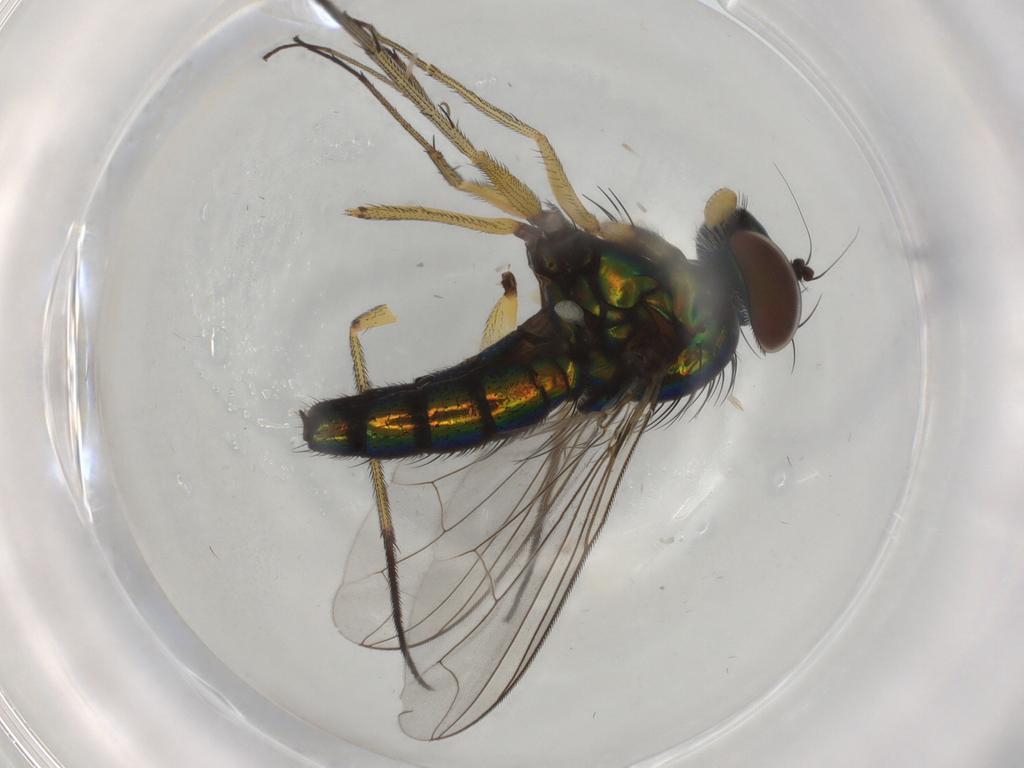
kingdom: Animalia
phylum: Arthropoda
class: Insecta
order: Diptera
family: Dolichopodidae
